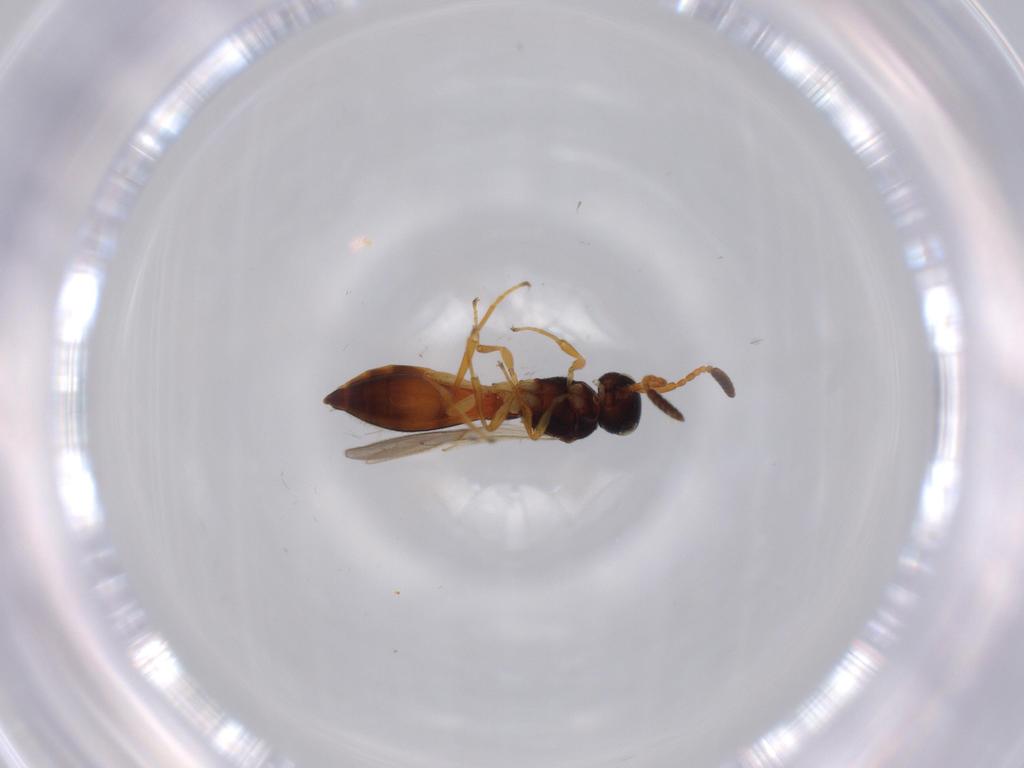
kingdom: Animalia
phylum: Arthropoda
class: Insecta
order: Hymenoptera
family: Scelionidae
